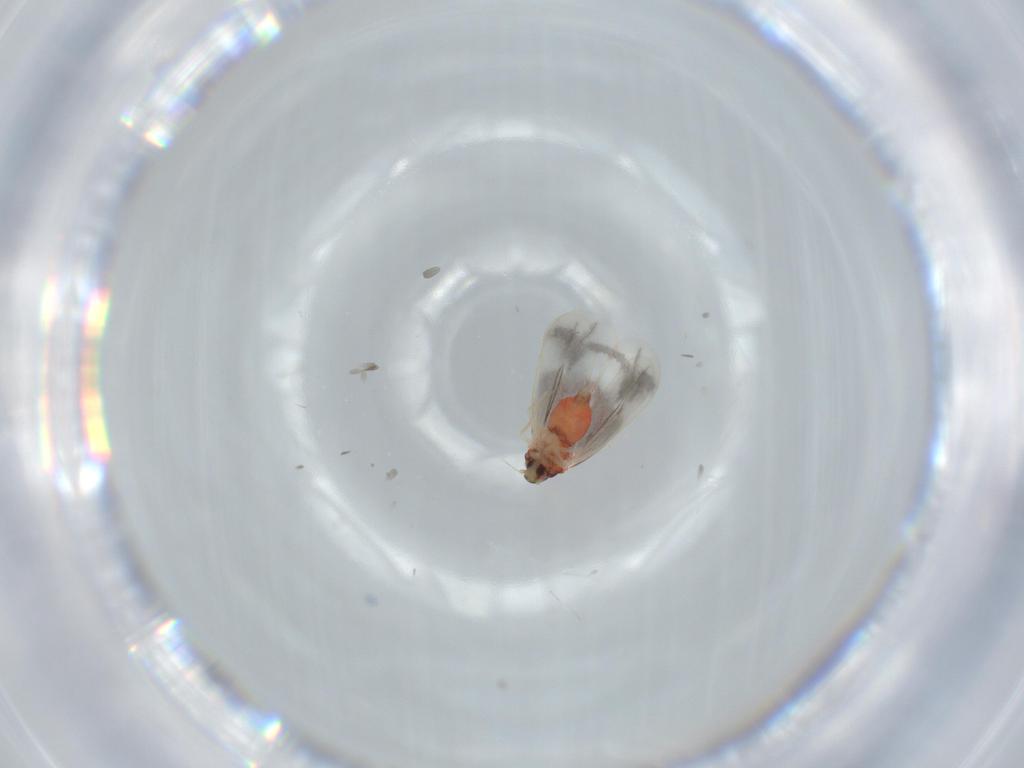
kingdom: Animalia
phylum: Arthropoda
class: Insecta
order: Hemiptera
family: Aleyrodidae
